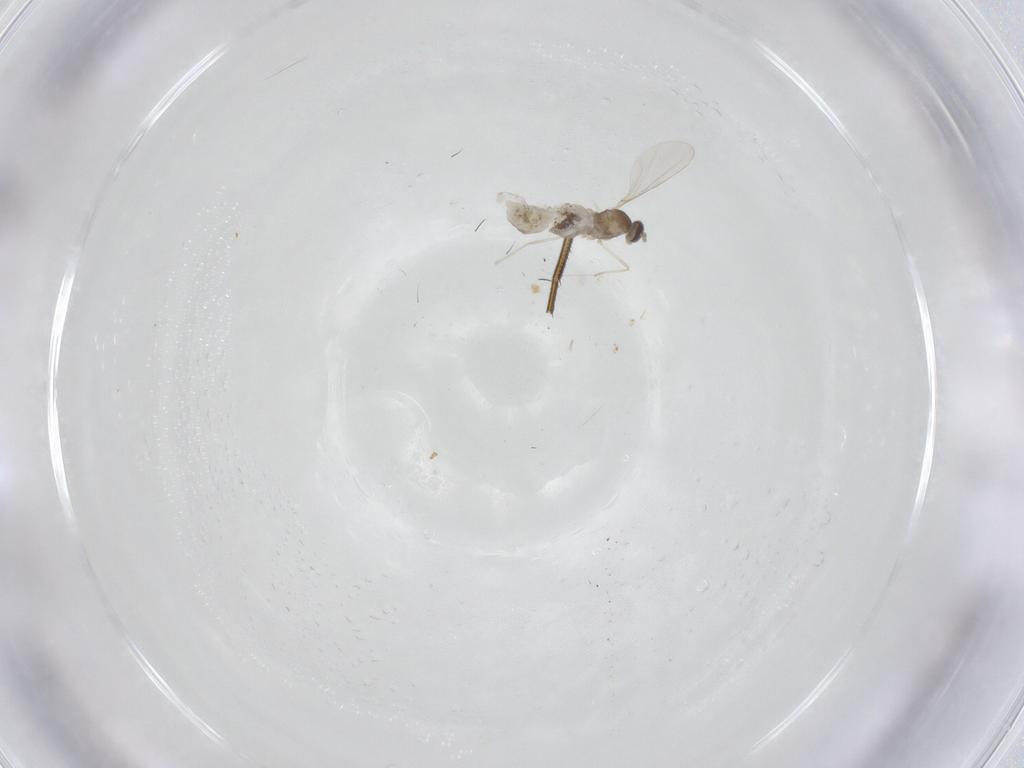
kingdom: Animalia
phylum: Arthropoda
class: Insecta
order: Diptera
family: Cecidomyiidae
